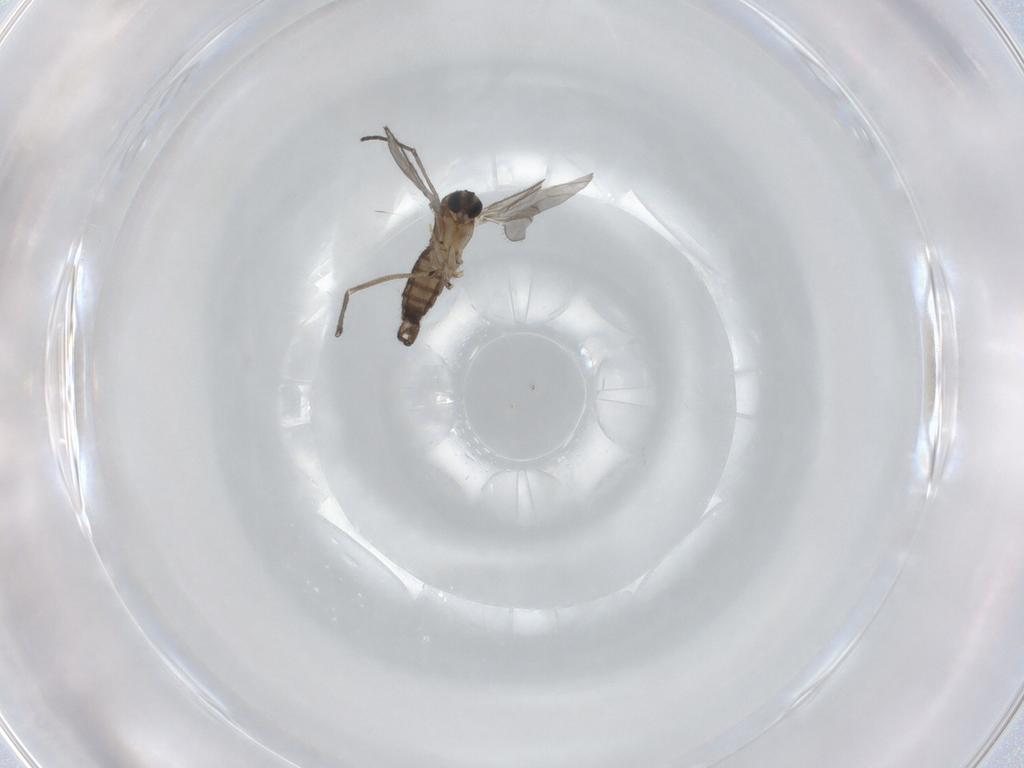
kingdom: Animalia
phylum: Arthropoda
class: Insecta
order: Diptera
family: Sciaridae
